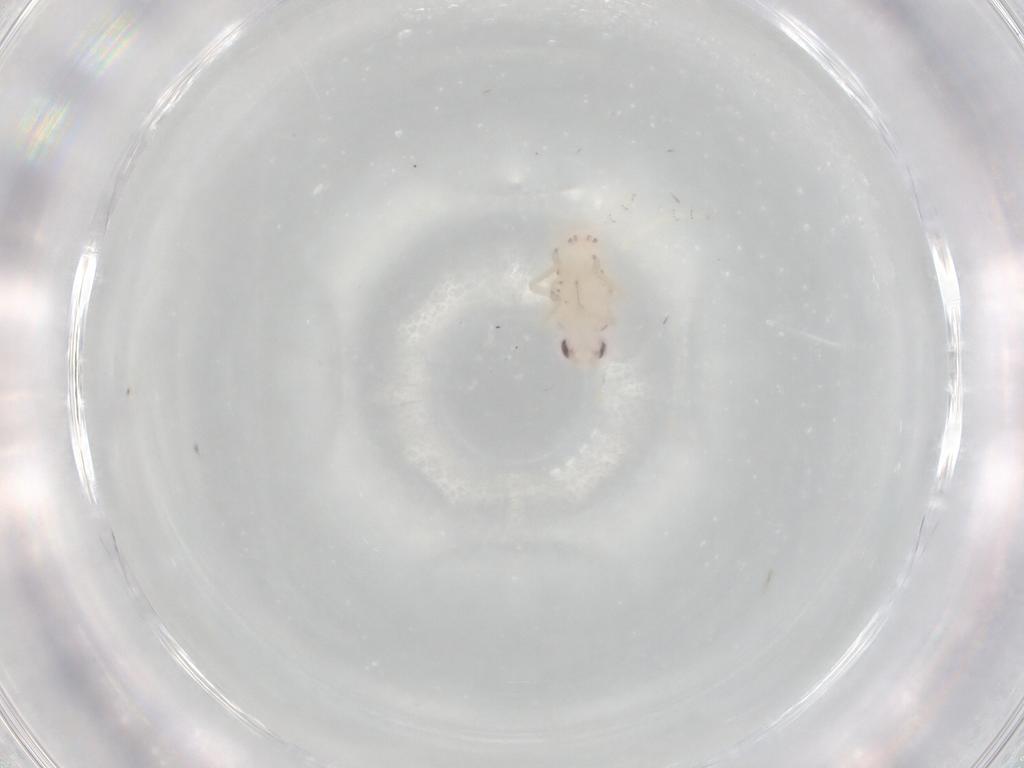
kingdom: Animalia
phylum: Arthropoda
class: Insecta
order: Hemiptera
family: Tropiduchidae
